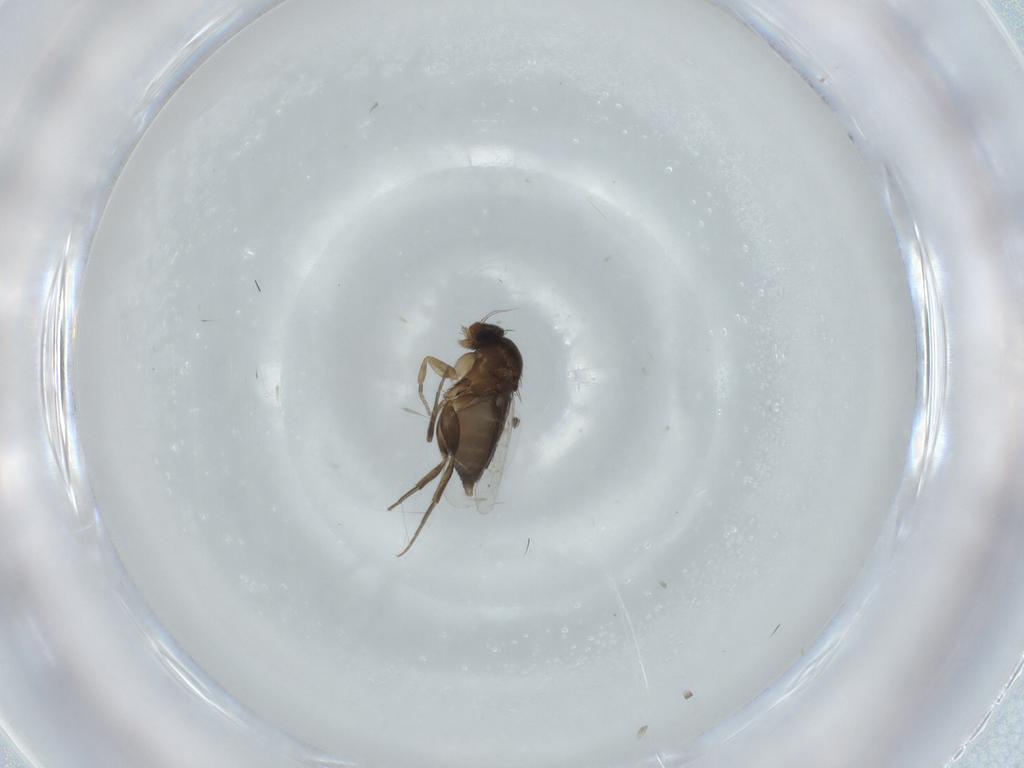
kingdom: Animalia
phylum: Arthropoda
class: Insecta
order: Diptera
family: Phoridae
